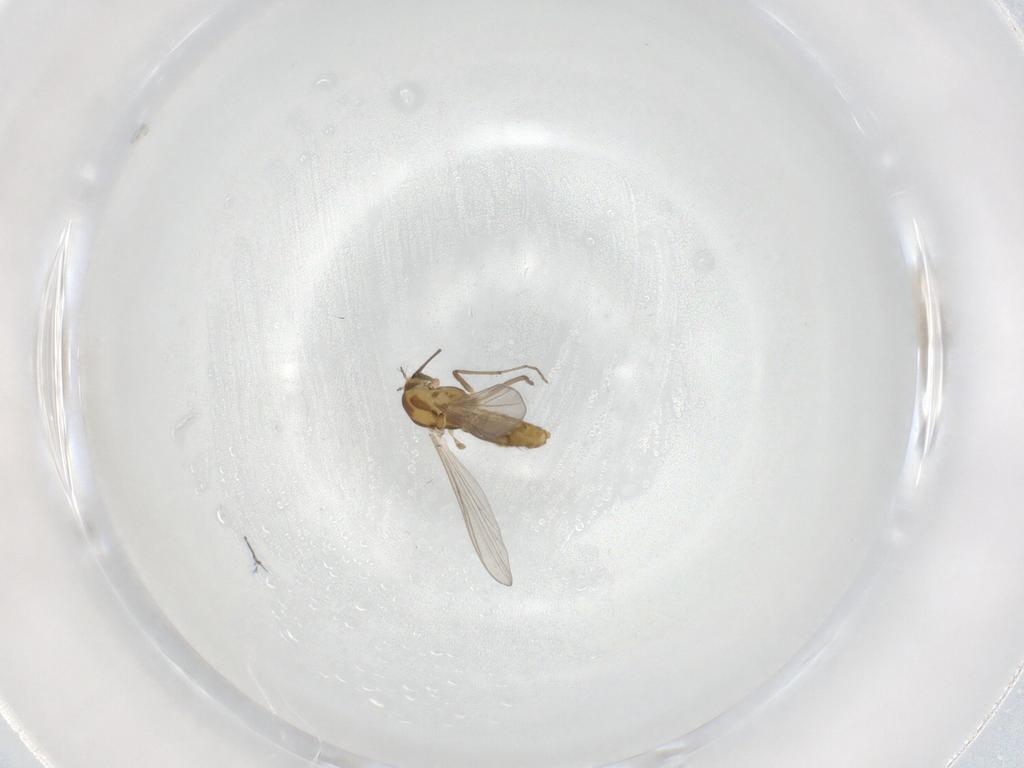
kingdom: Animalia
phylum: Arthropoda
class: Insecta
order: Diptera
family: Chironomidae
